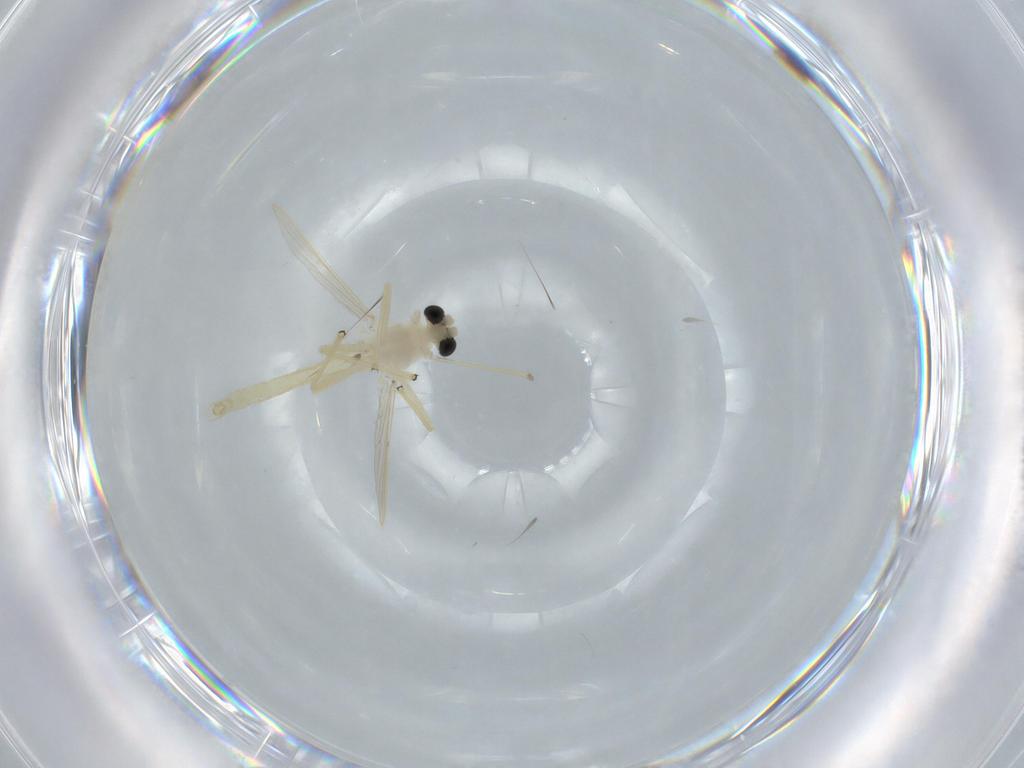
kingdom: Animalia
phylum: Arthropoda
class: Insecta
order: Diptera
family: Chironomidae
